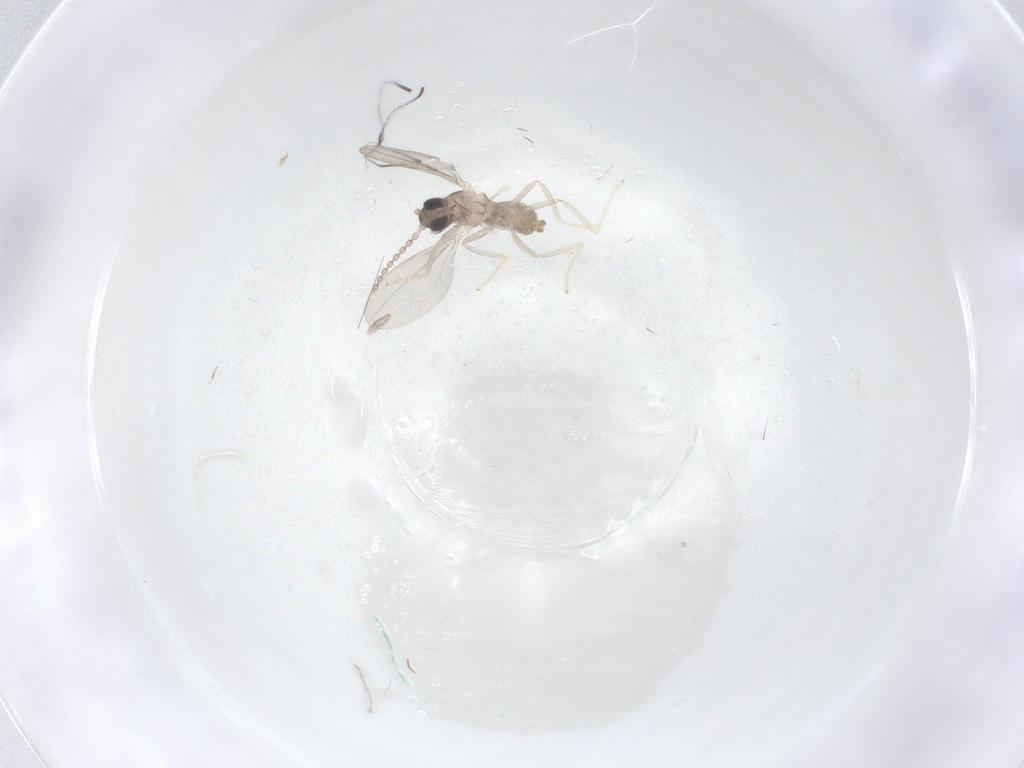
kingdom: Animalia
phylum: Arthropoda
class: Insecta
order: Diptera
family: Cecidomyiidae
